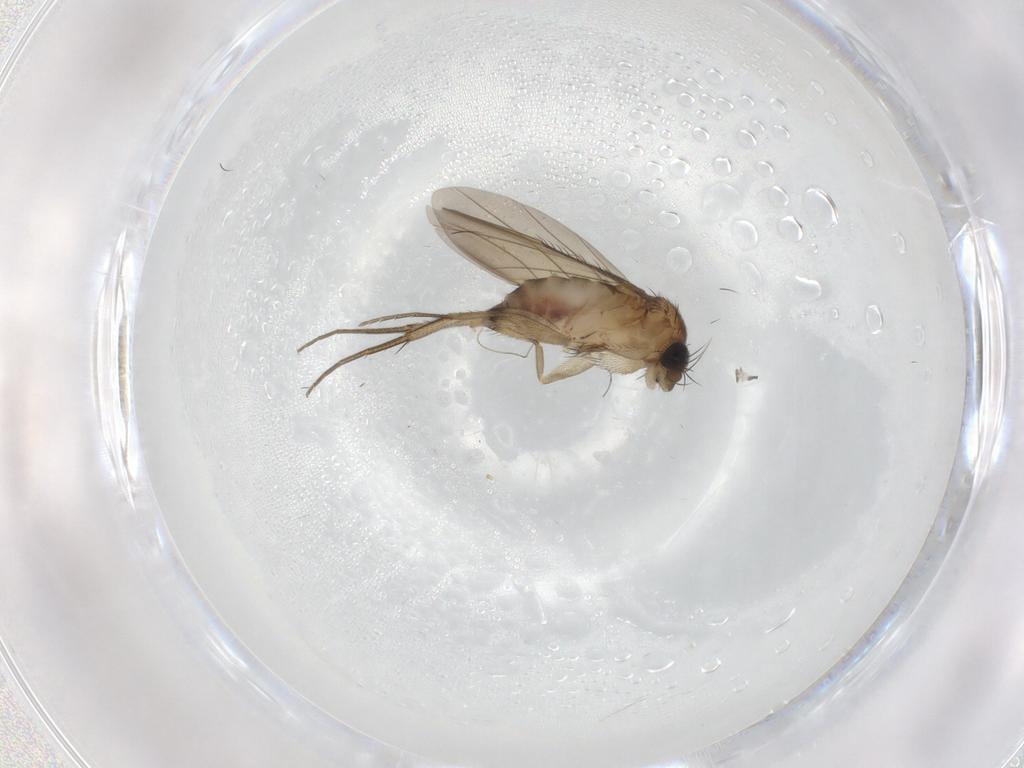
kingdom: Animalia
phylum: Arthropoda
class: Insecta
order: Diptera
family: Phoridae
